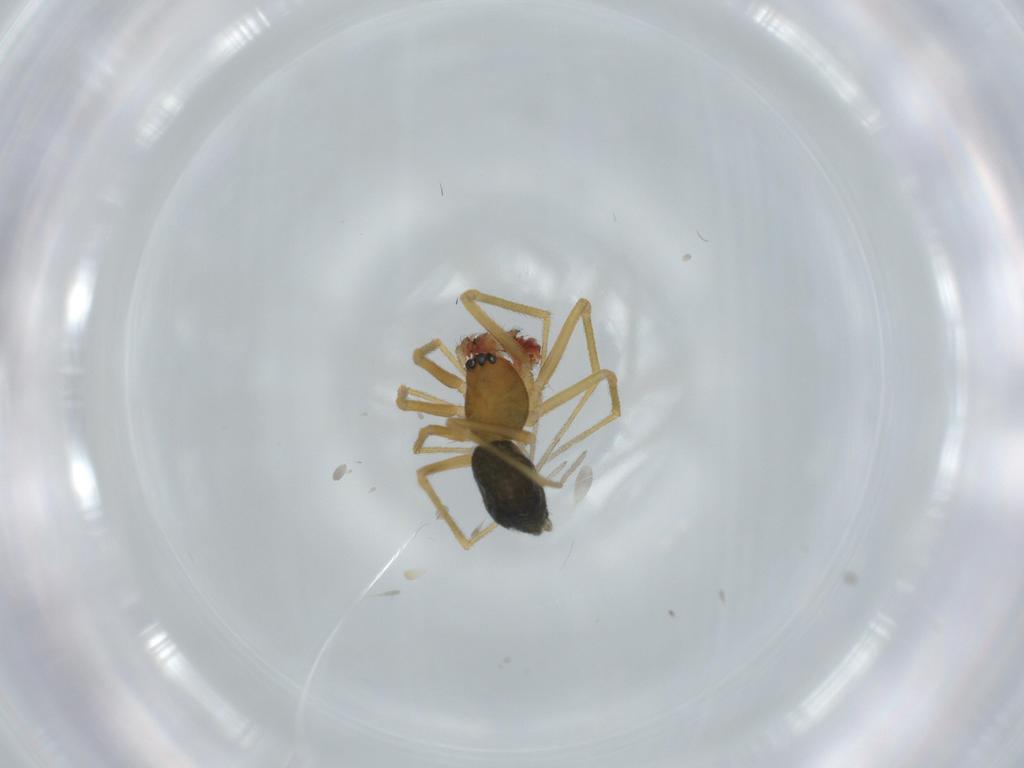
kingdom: Animalia
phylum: Arthropoda
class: Arachnida
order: Araneae
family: Linyphiidae
